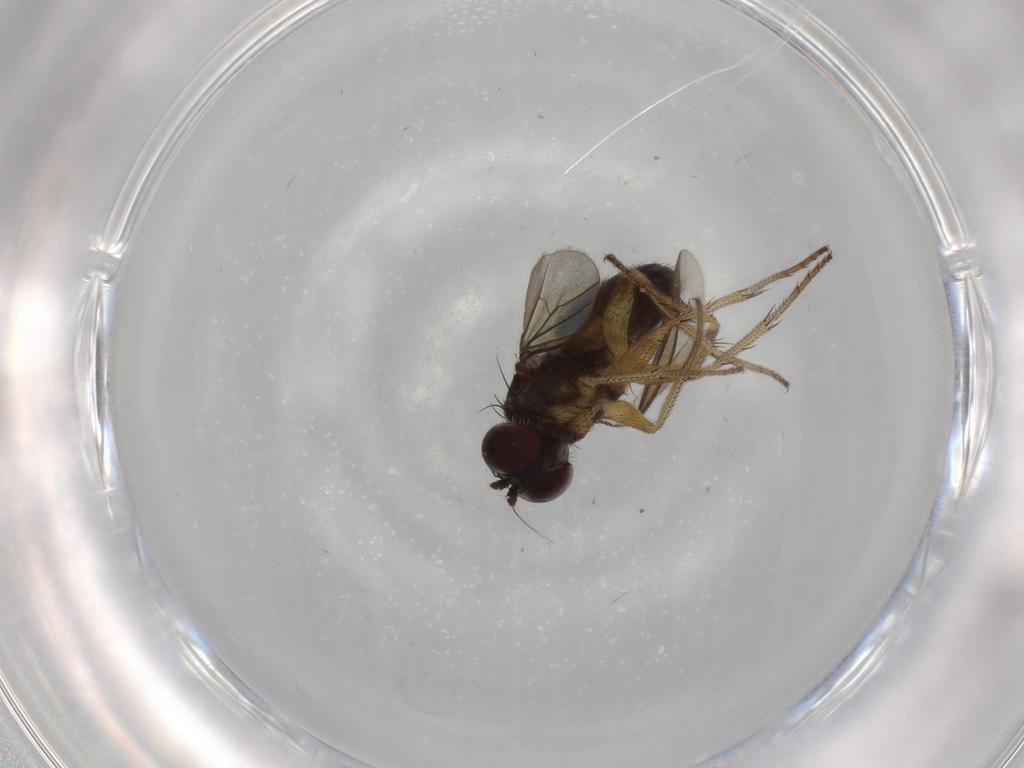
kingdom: Animalia
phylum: Arthropoda
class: Insecta
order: Diptera
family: Dolichopodidae
